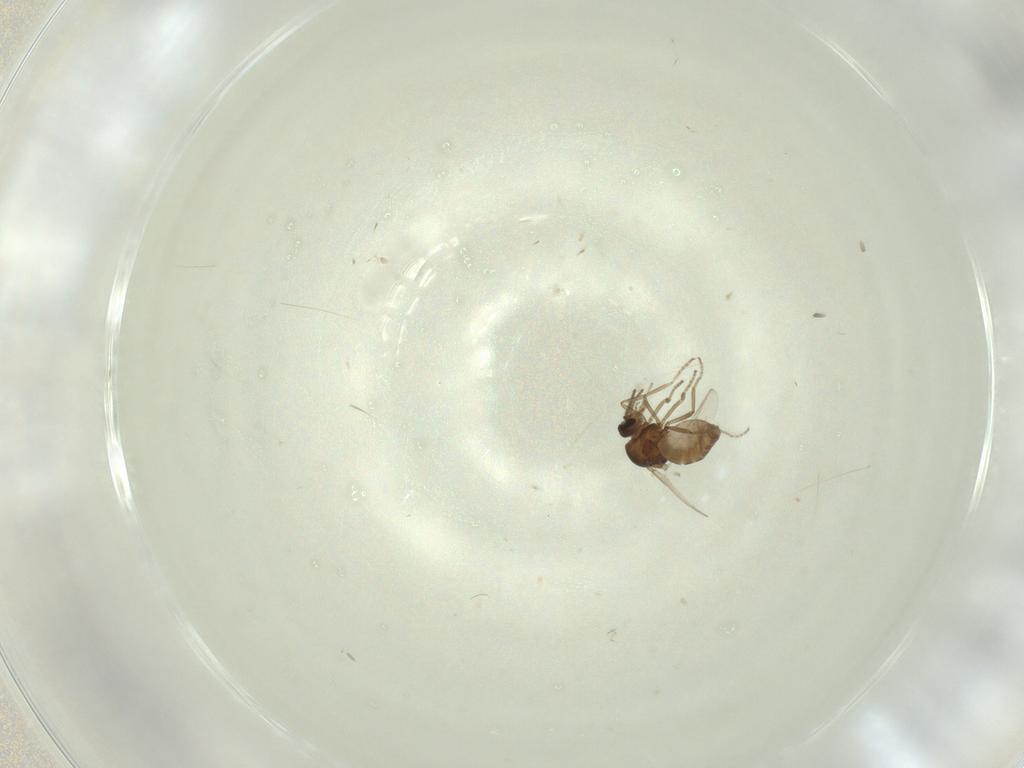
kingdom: Animalia
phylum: Arthropoda
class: Insecta
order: Diptera
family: Ceratopogonidae
